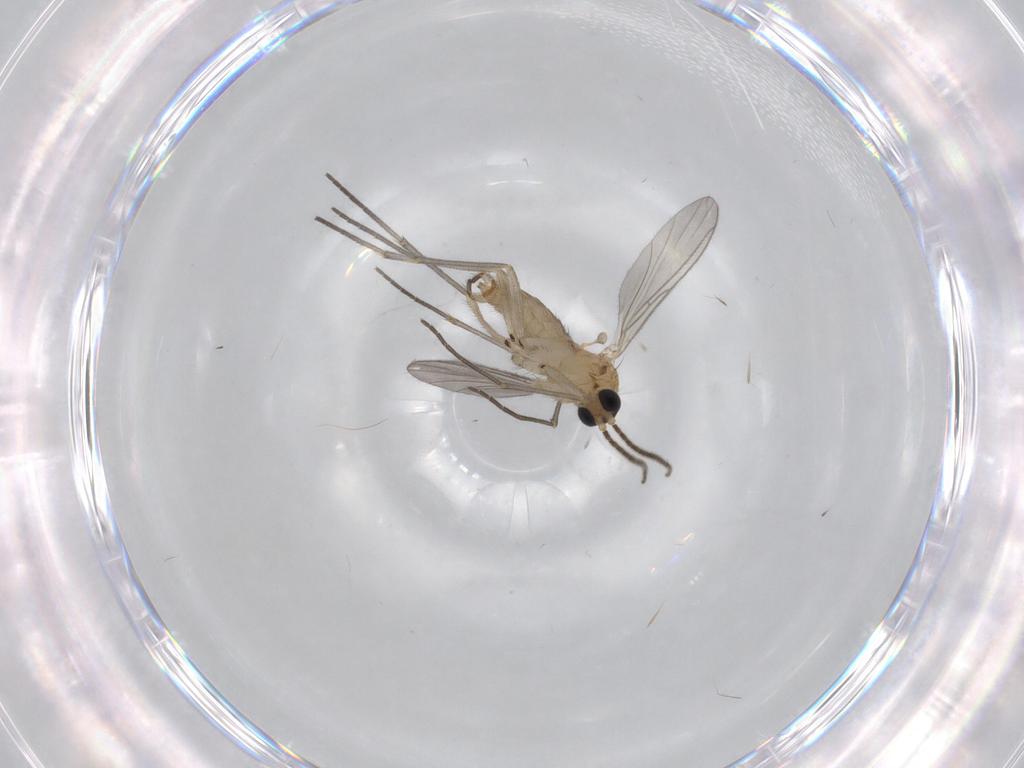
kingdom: Animalia
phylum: Arthropoda
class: Insecta
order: Diptera
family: Sciaridae
